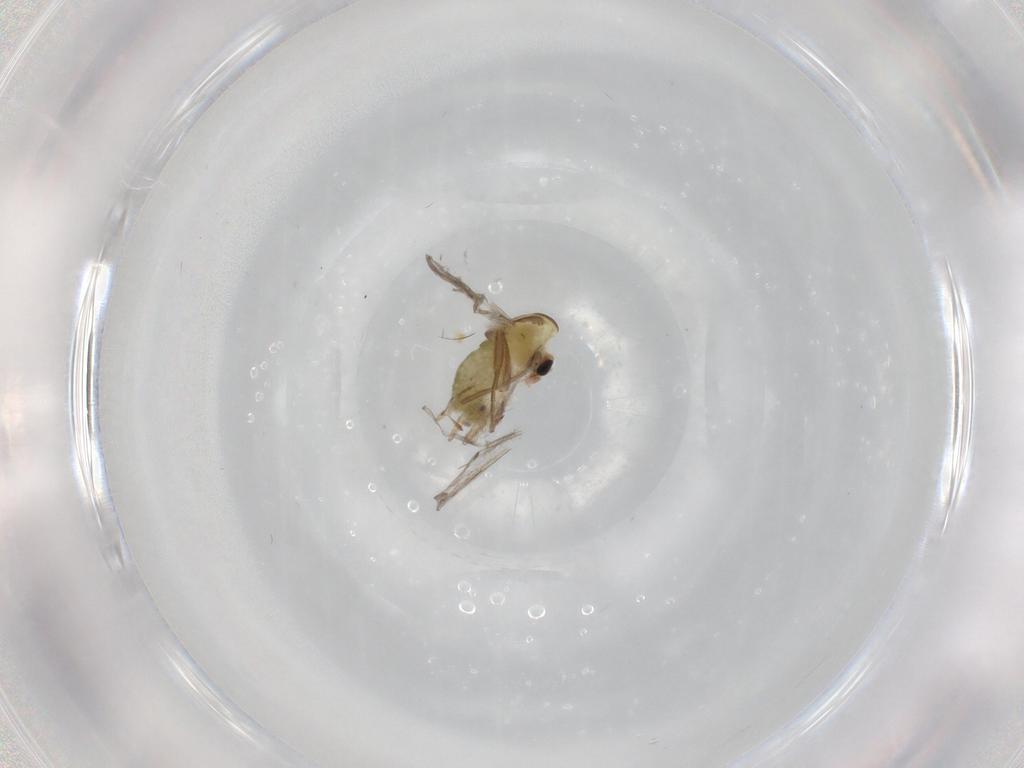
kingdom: Animalia
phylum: Arthropoda
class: Insecta
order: Diptera
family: Chironomidae
